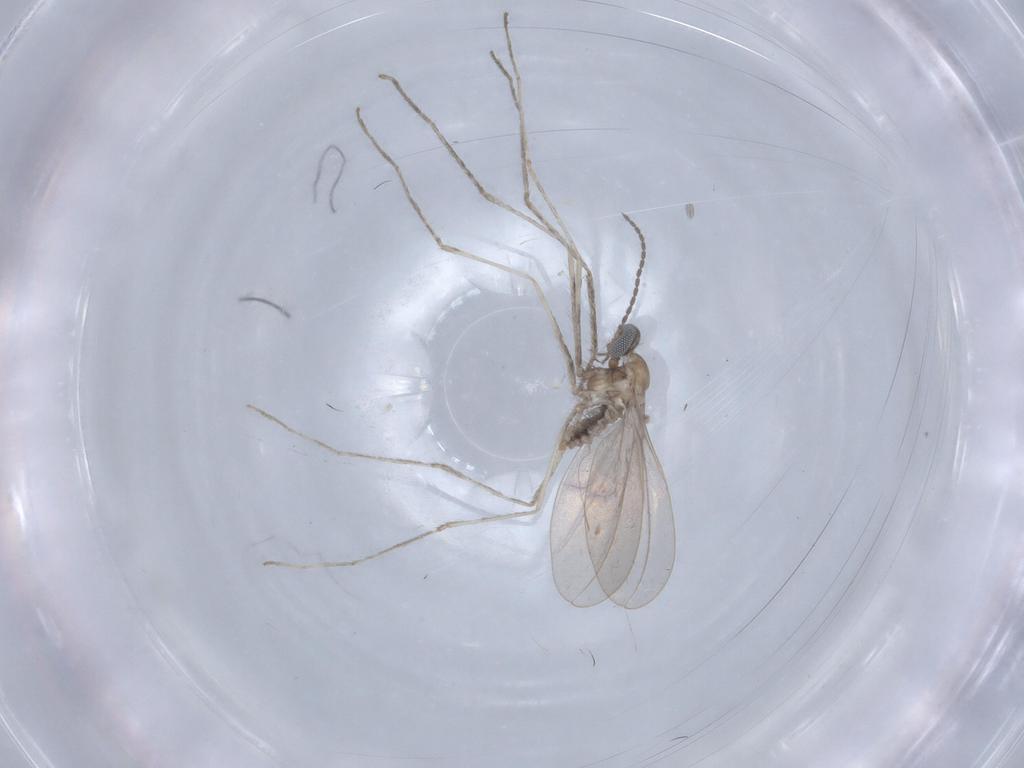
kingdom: Animalia
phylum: Arthropoda
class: Insecta
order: Diptera
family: Cecidomyiidae
